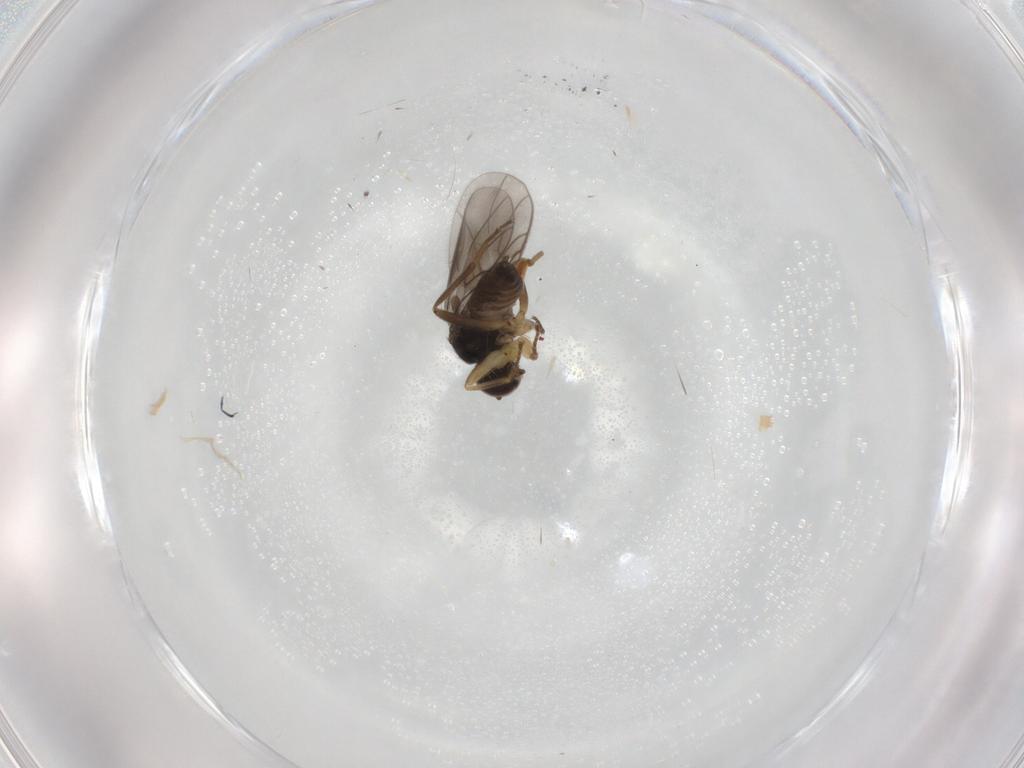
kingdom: Animalia
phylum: Arthropoda
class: Insecta
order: Diptera
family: Hybotidae
